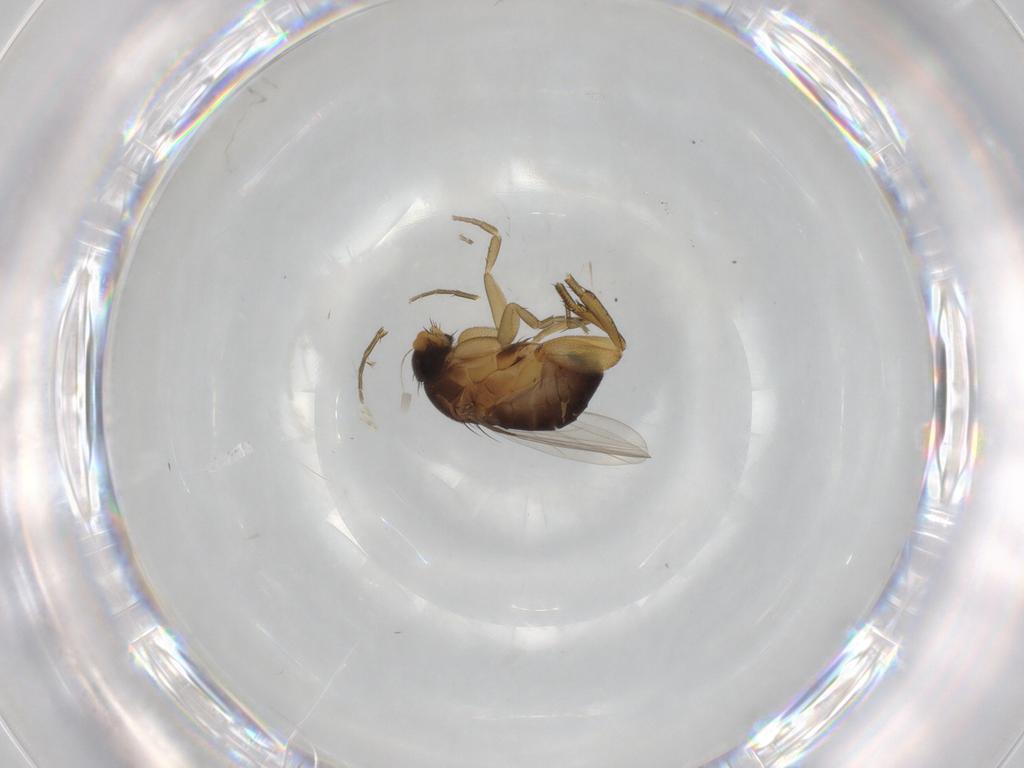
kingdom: Animalia
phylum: Arthropoda
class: Insecta
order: Diptera
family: Phoridae
